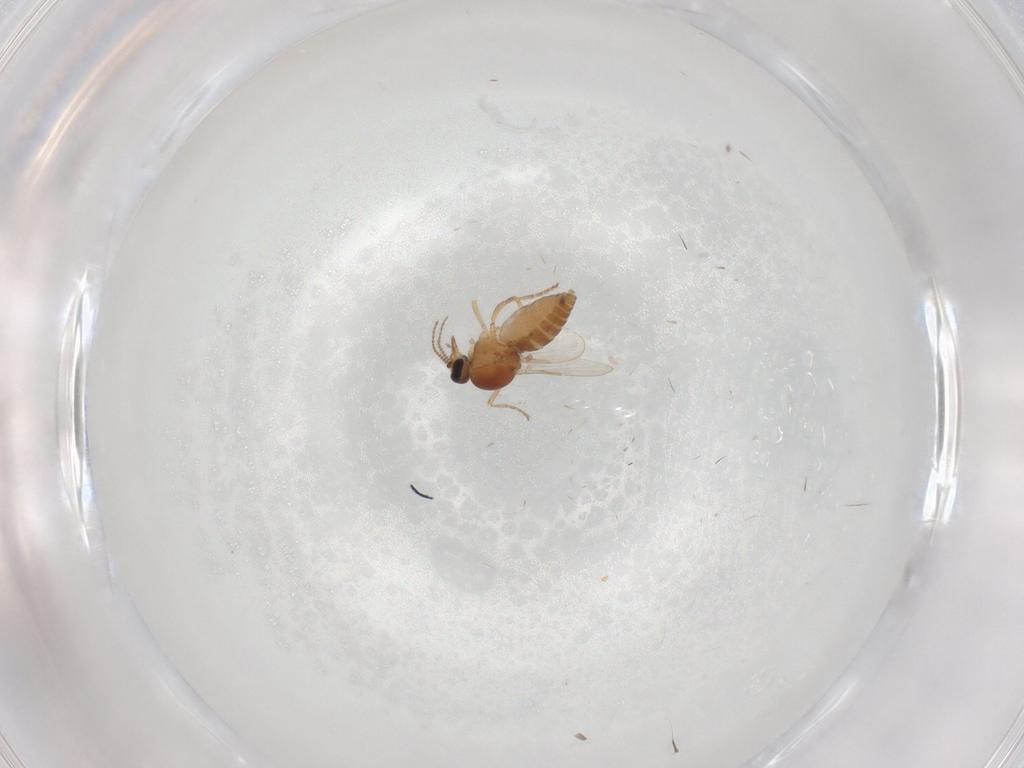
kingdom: Animalia
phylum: Arthropoda
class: Insecta
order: Diptera
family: Ceratopogonidae
